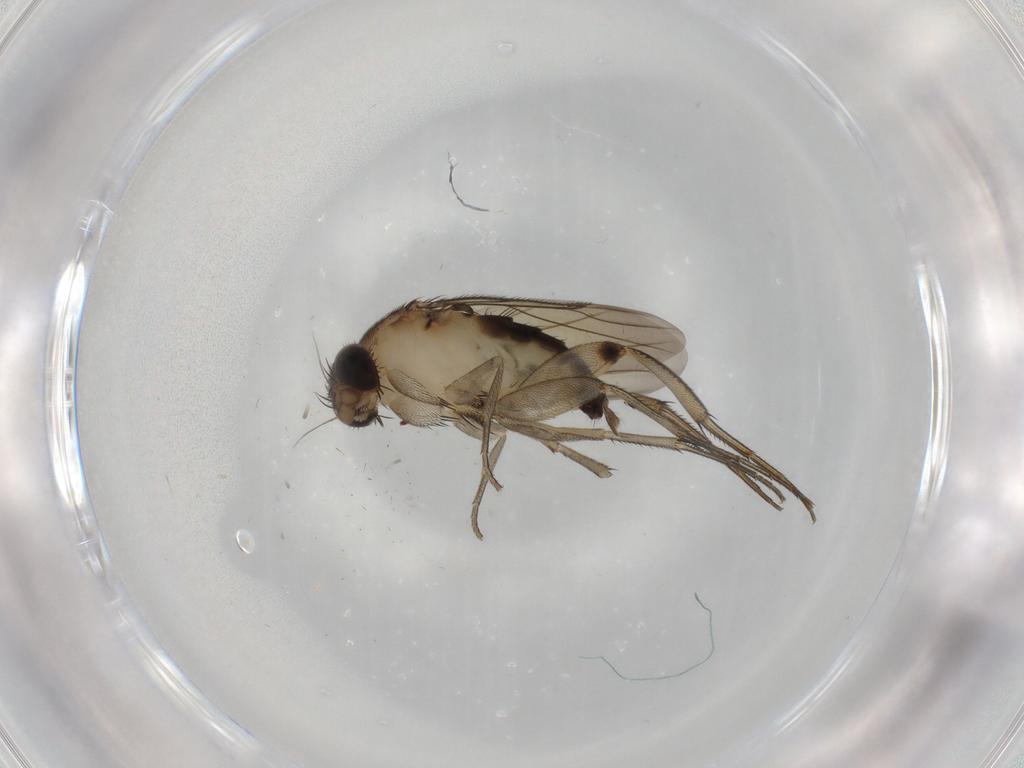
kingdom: Animalia
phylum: Arthropoda
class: Insecta
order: Diptera
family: Phoridae
